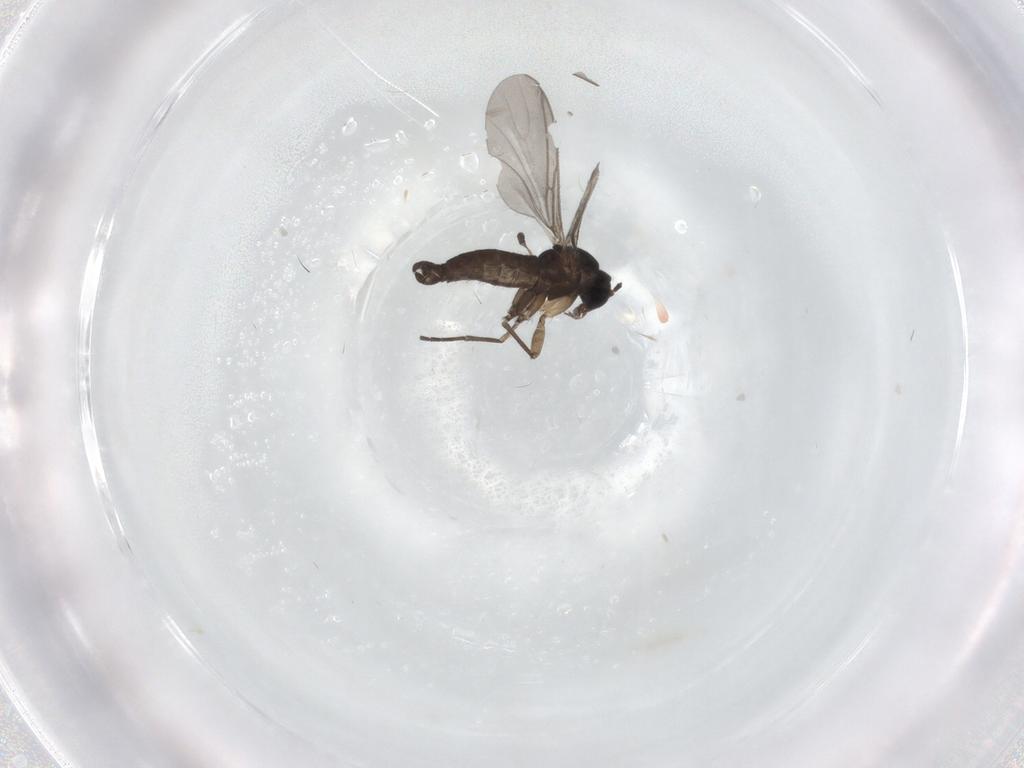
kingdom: Animalia
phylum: Arthropoda
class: Insecta
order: Diptera
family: Sciaridae
